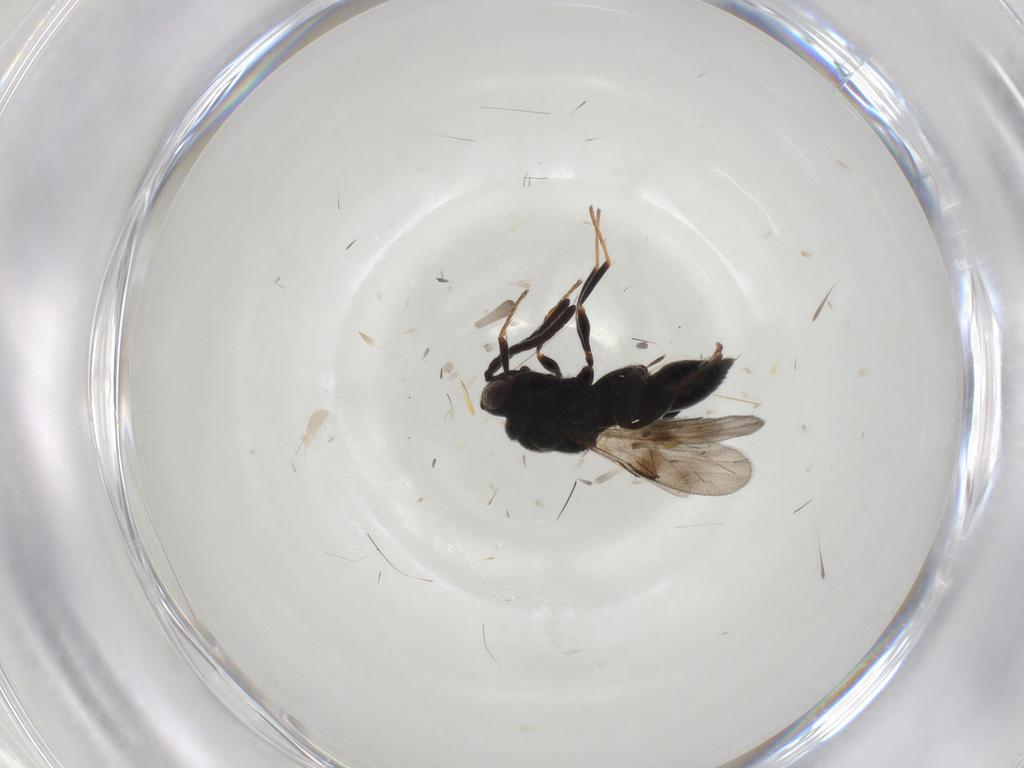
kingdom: Animalia
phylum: Arthropoda
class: Insecta
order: Hymenoptera
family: Chalcididae
